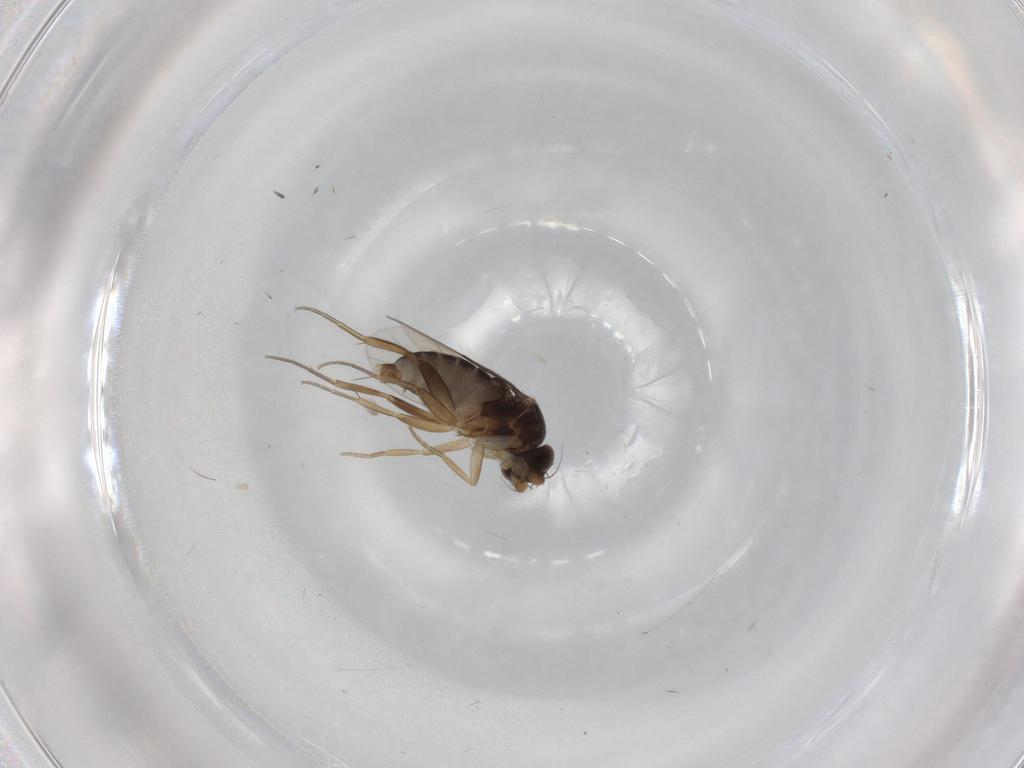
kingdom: Animalia
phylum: Arthropoda
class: Insecta
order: Diptera
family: Phoridae
